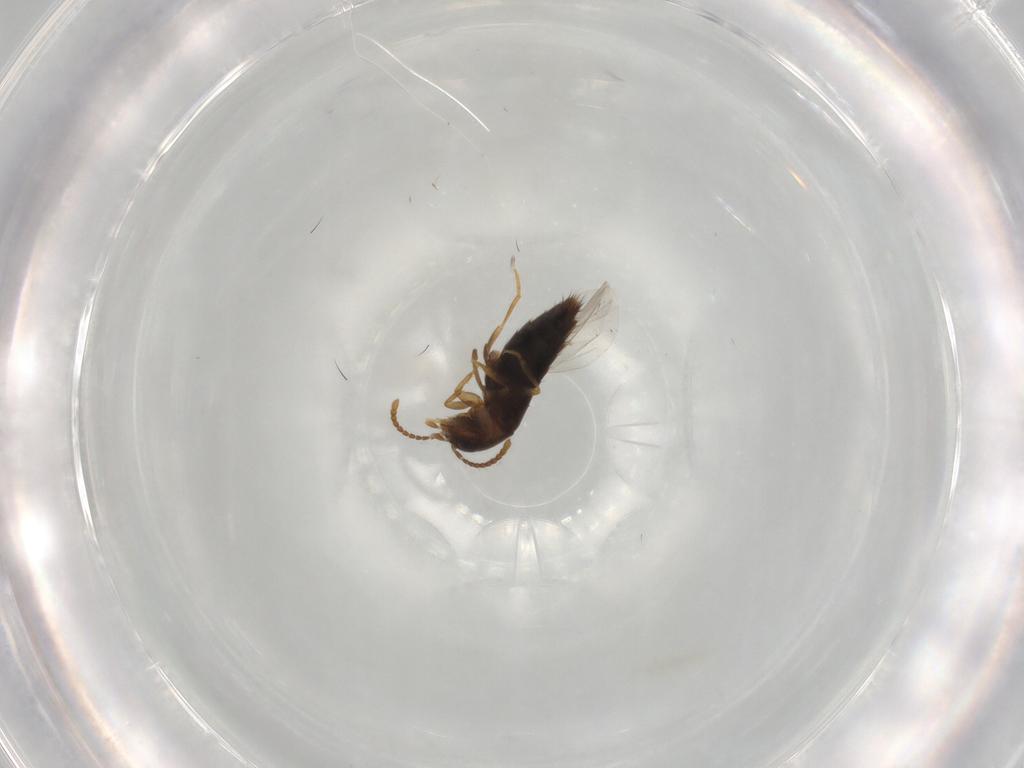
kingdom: Animalia
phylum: Arthropoda
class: Insecta
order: Coleoptera
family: Staphylinidae
